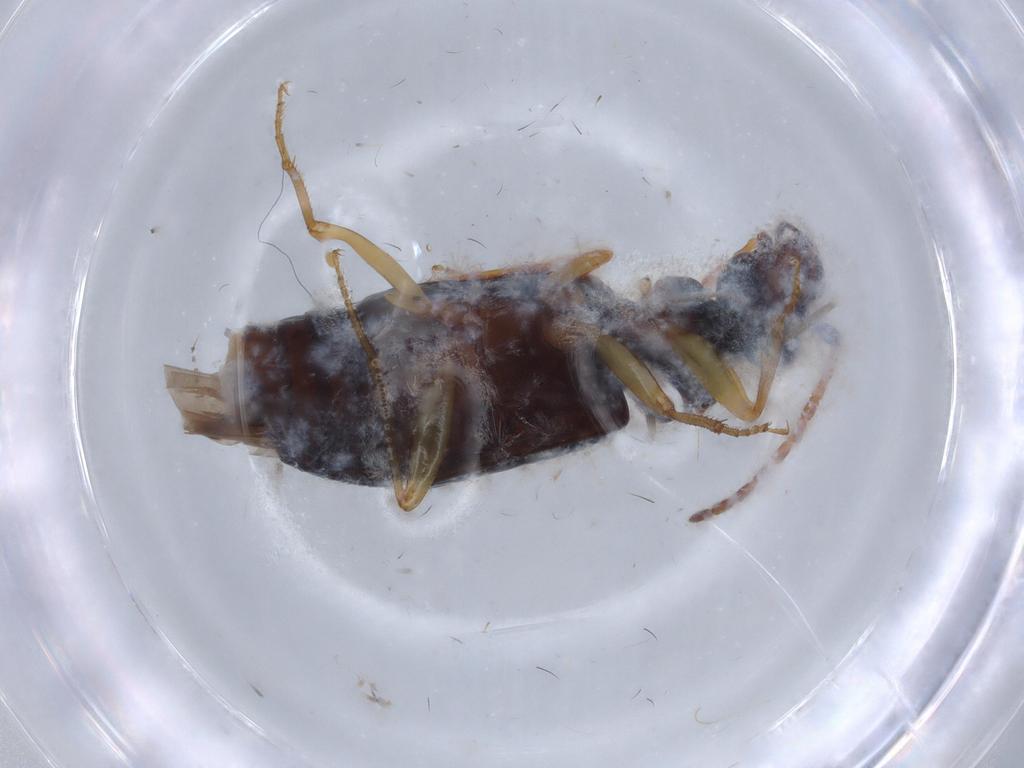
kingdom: Animalia
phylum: Arthropoda
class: Insecta
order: Coleoptera
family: Carabidae
